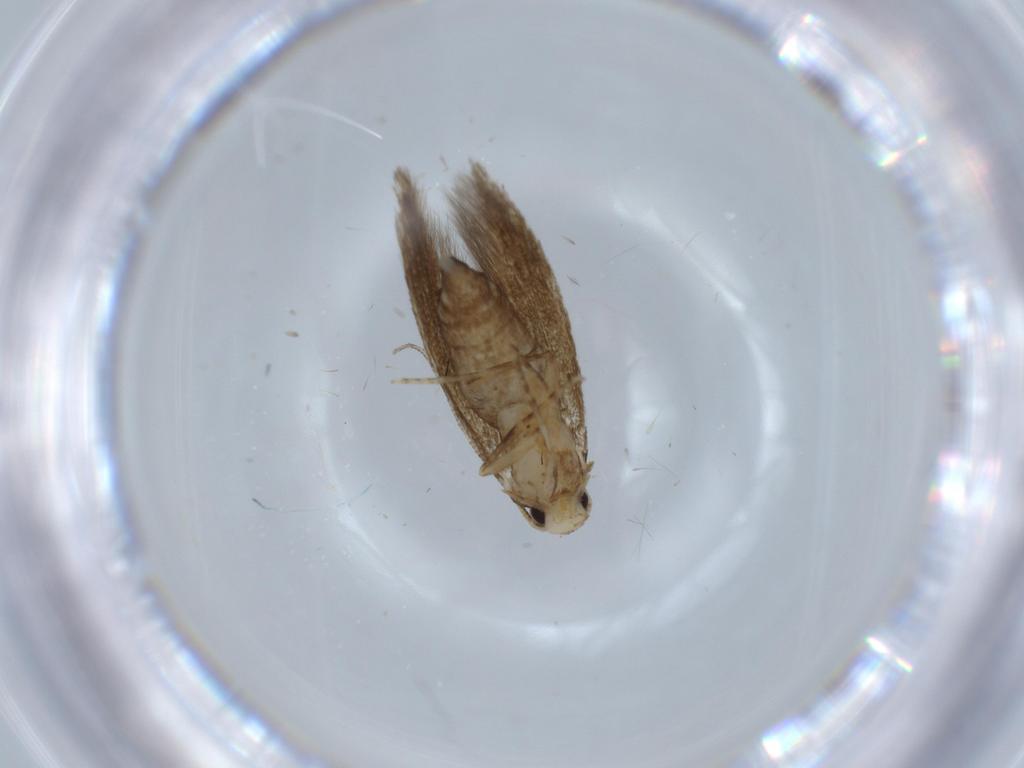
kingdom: Animalia
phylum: Arthropoda
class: Insecta
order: Lepidoptera
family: Tineidae
